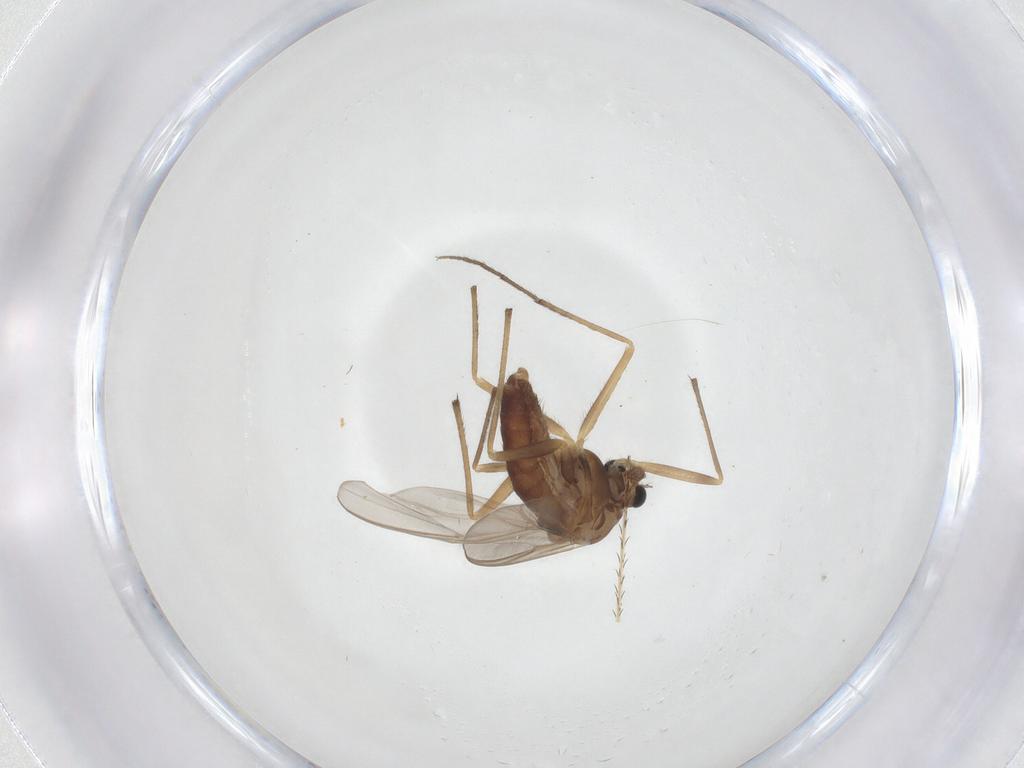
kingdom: Animalia
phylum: Arthropoda
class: Insecta
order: Diptera
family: Chironomidae
